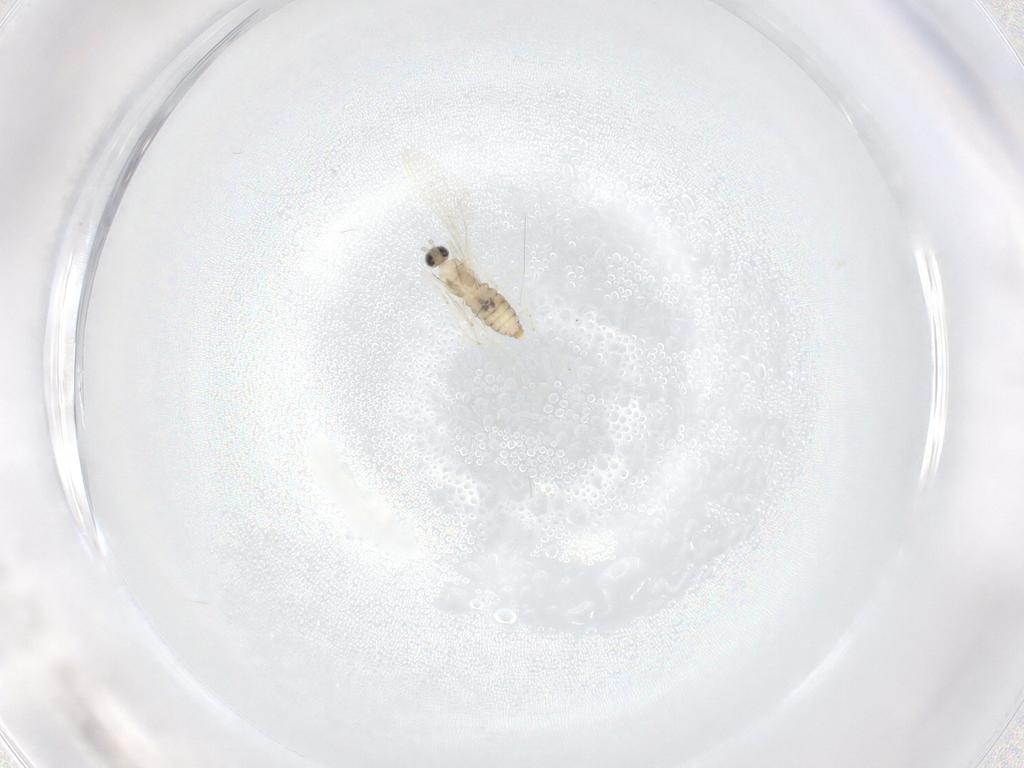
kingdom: Animalia
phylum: Arthropoda
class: Insecta
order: Diptera
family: Cecidomyiidae
